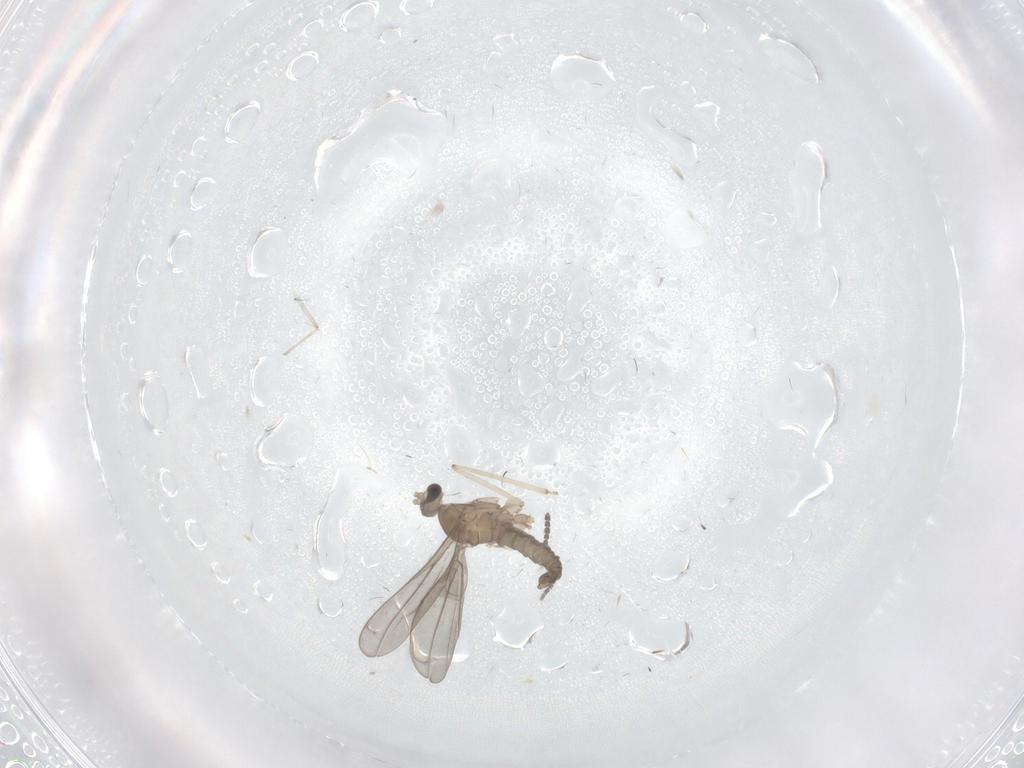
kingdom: Animalia
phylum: Arthropoda
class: Insecta
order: Diptera
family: Chironomidae
